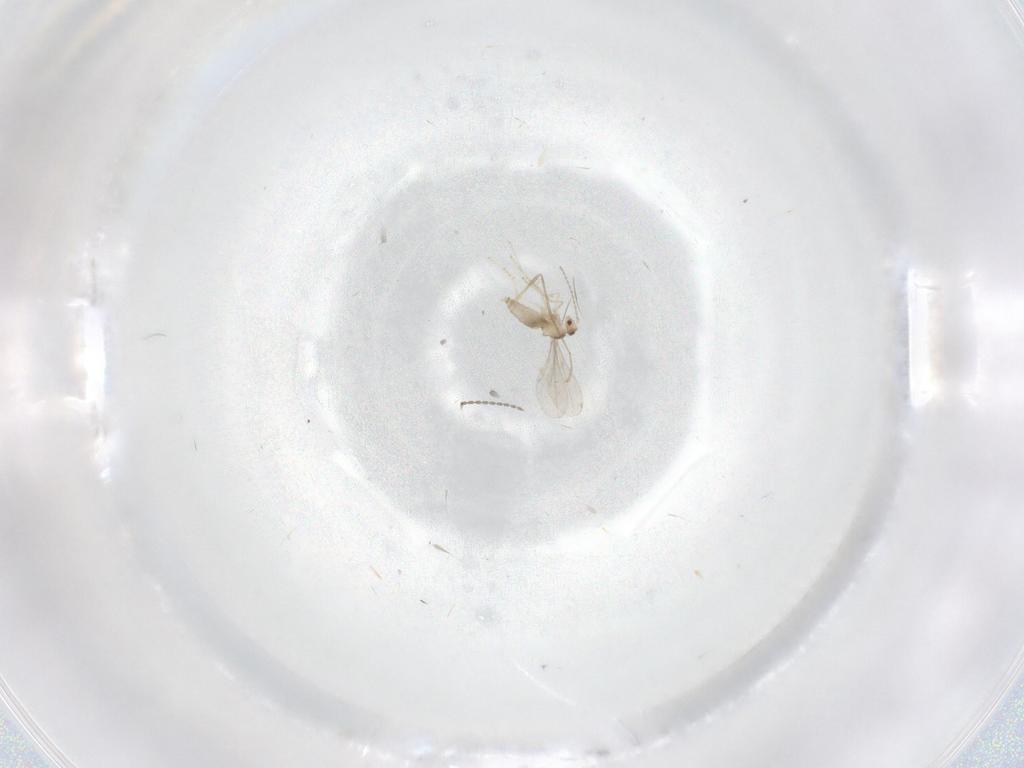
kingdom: Animalia
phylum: Arthropoda
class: Insecta
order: Diptera
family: Cecidomyiidae
